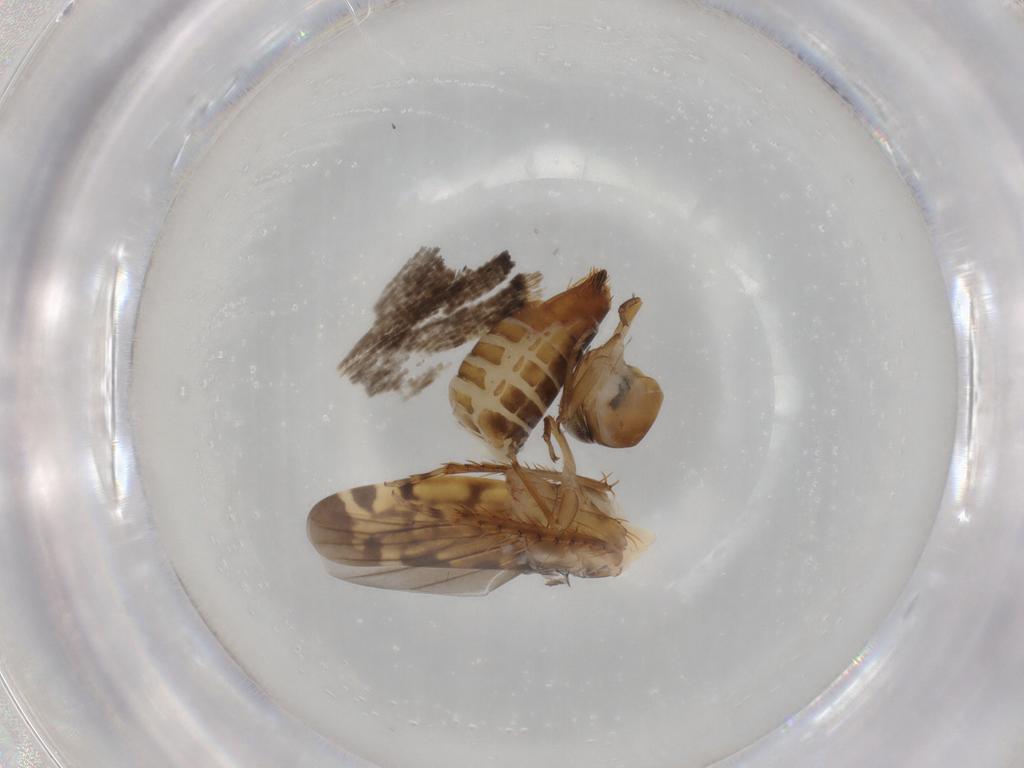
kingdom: Animalia
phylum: Arthropoda
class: Insecta
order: Hemiptera
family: Cicadellidae
